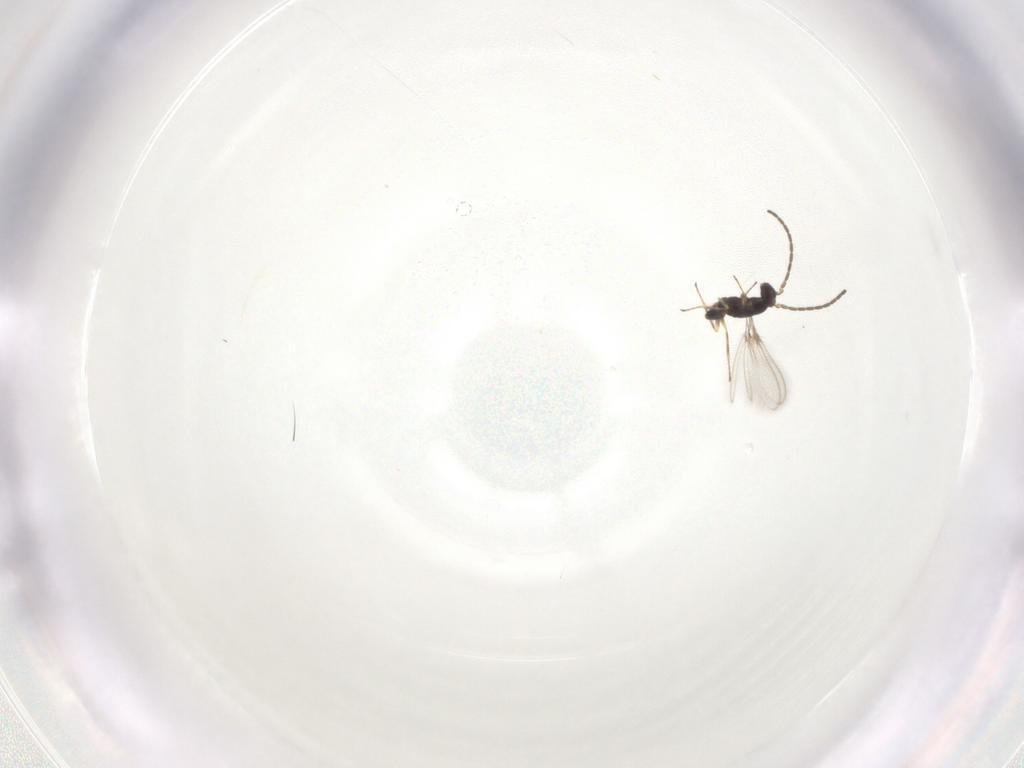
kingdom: Animalia
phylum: Arthropoda
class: Insecta
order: Hymenoptera
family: Mymaridae
